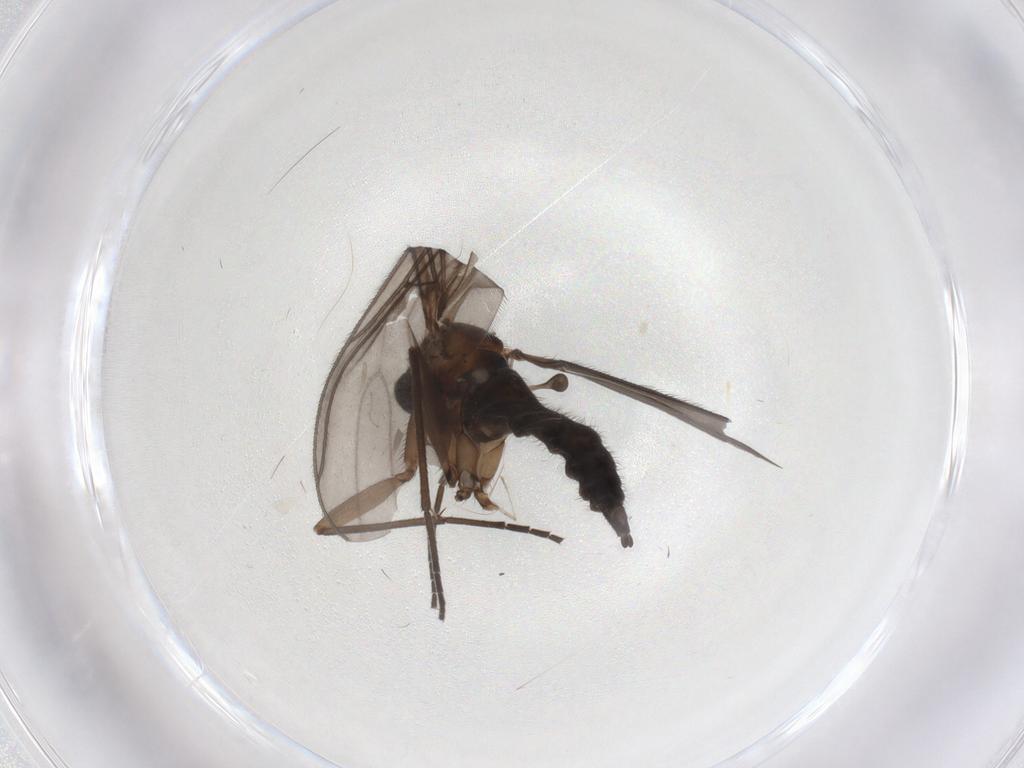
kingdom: Animalia
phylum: Arthropoda
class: Insecta
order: Diptera
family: Sciaridae
